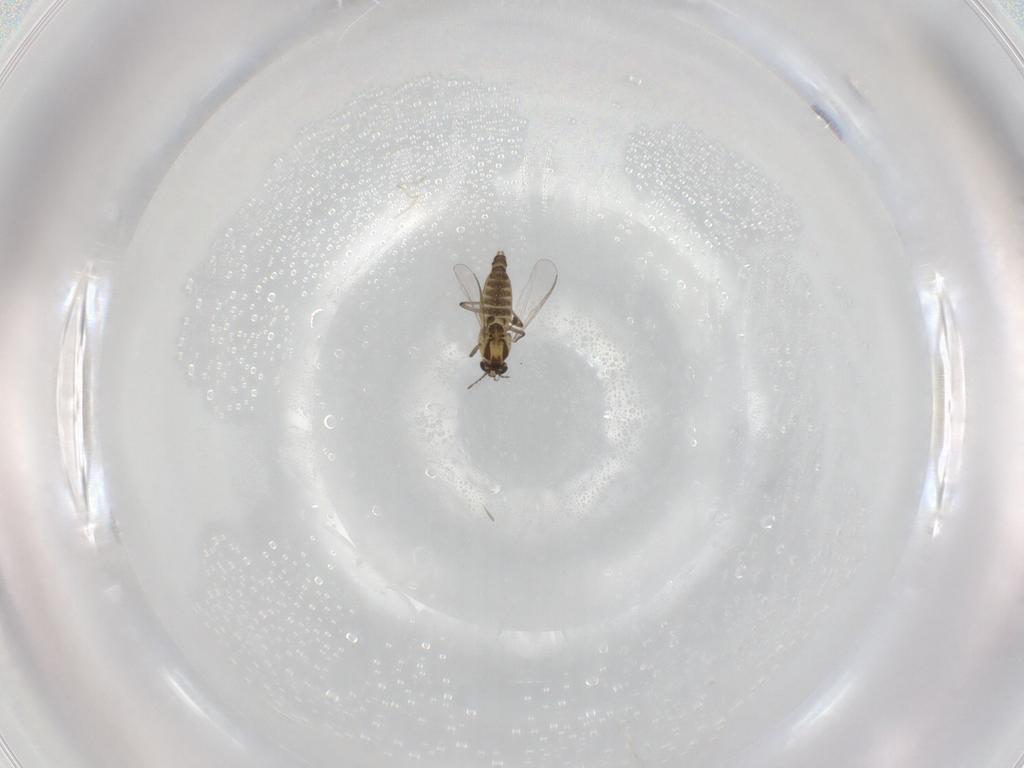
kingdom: Animalia
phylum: Arthropoda
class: Insecta
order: Diptera
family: Chironomidae
